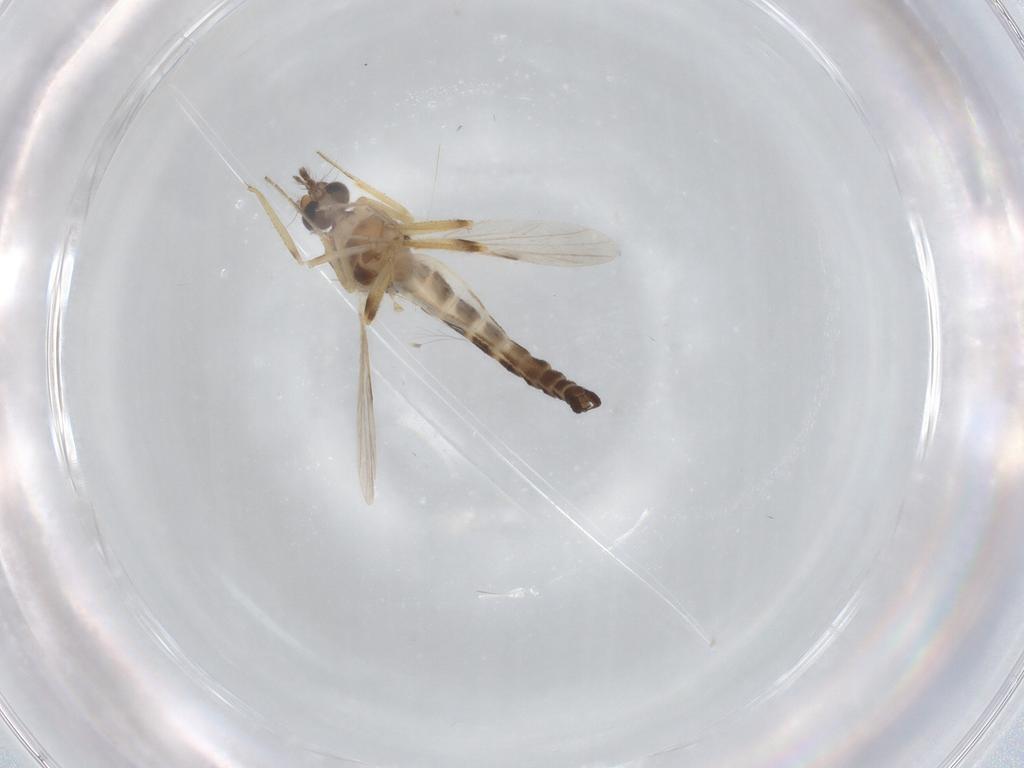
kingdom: Animalia
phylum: Arthropoda
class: Insecta
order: Diptera
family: Ceratopogonidae
